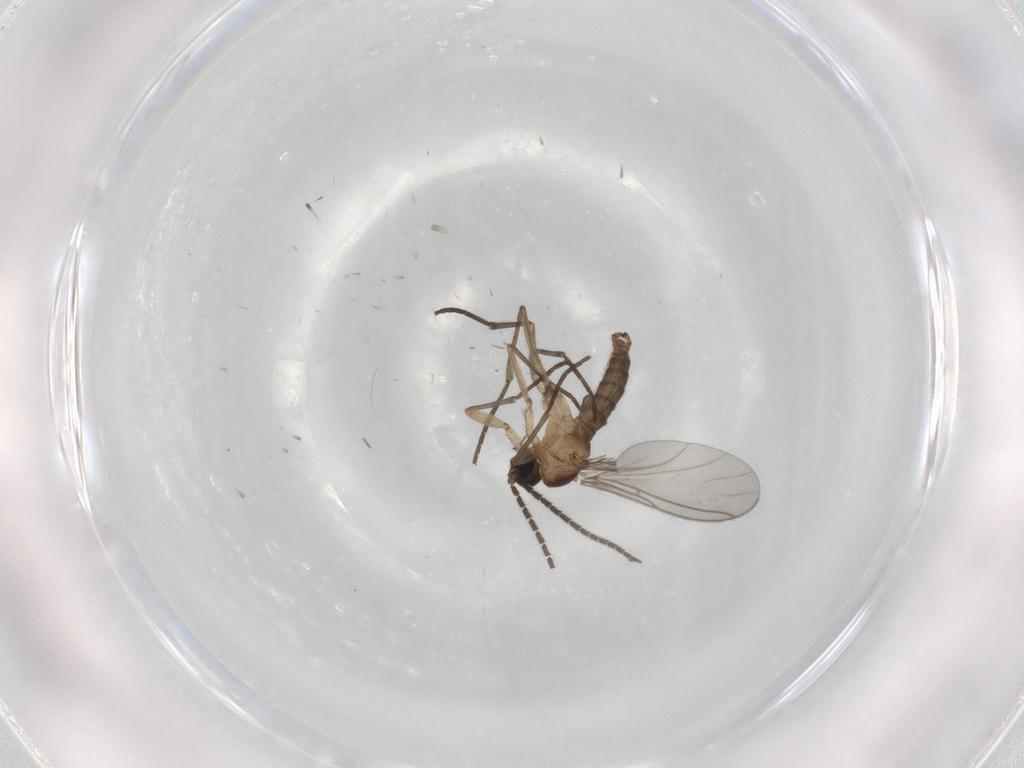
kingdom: Animalia
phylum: Arthropoda
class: Insecta
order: Diptera
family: Sciaridae
